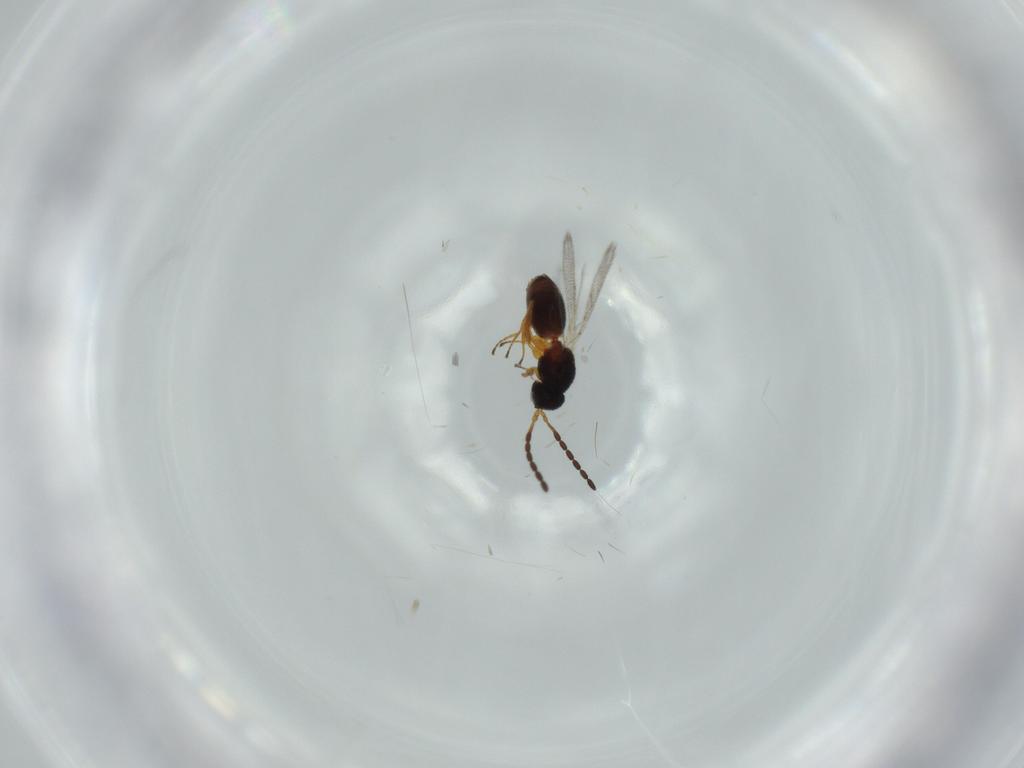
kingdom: Animalia
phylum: Arthropoda
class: Insecta
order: Hymenoptera
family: Figitidae
